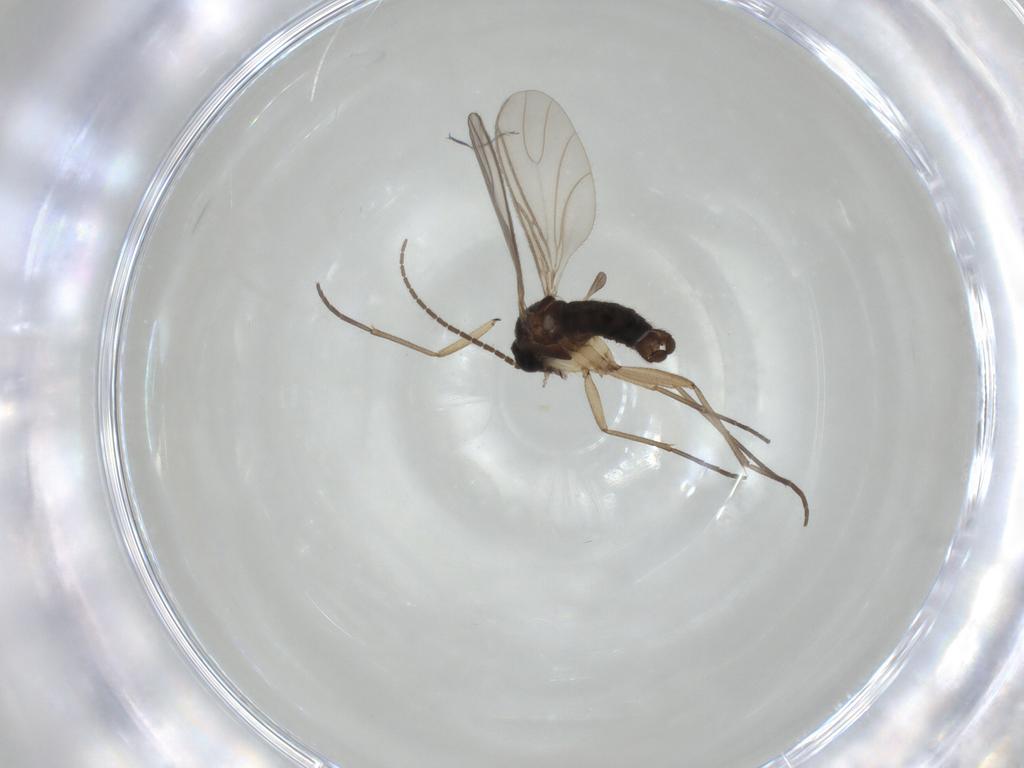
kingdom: Animalia
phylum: Arthropoda
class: Insecta
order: Diptera
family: Sciaridae
